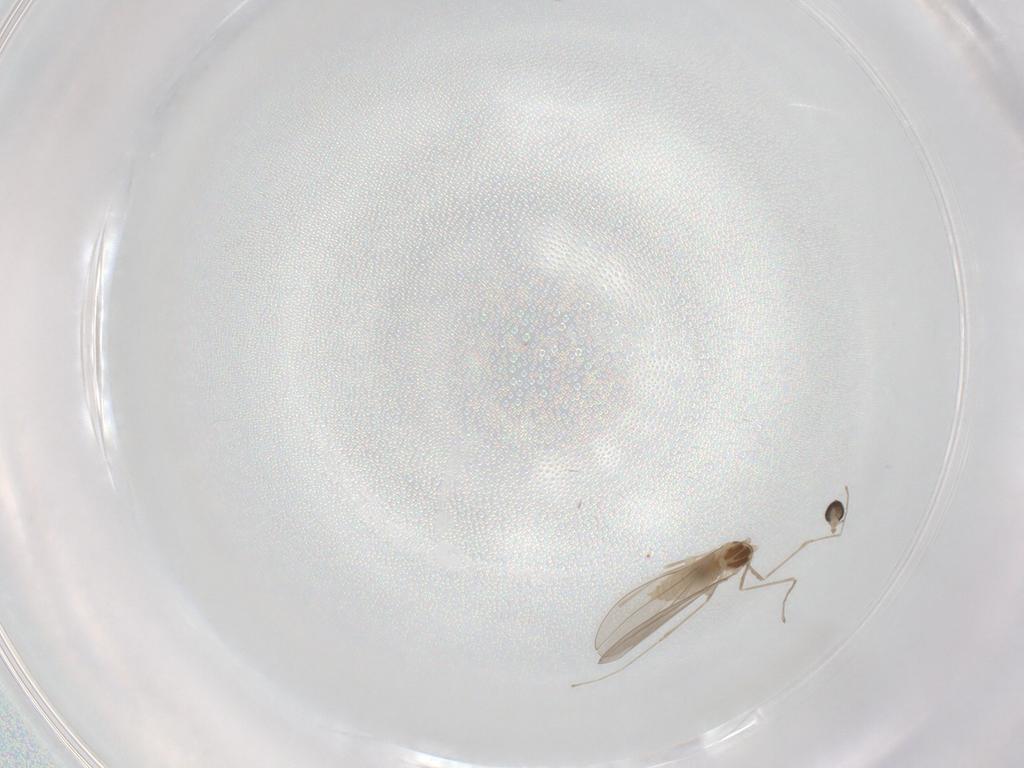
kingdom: Animalia
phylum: Arthropoda
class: Insecta
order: Diptera
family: Cecidomyiidae
